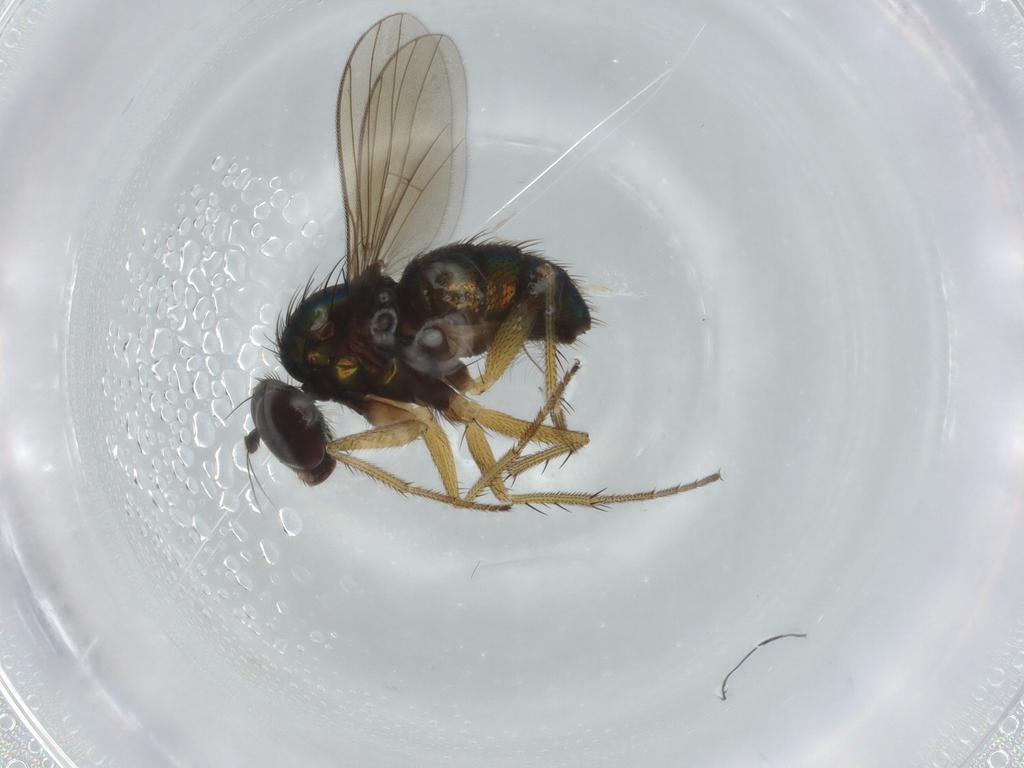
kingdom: Animalia
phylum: Arthropoda
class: Insecta
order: Diptera
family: Dolichopodidae
